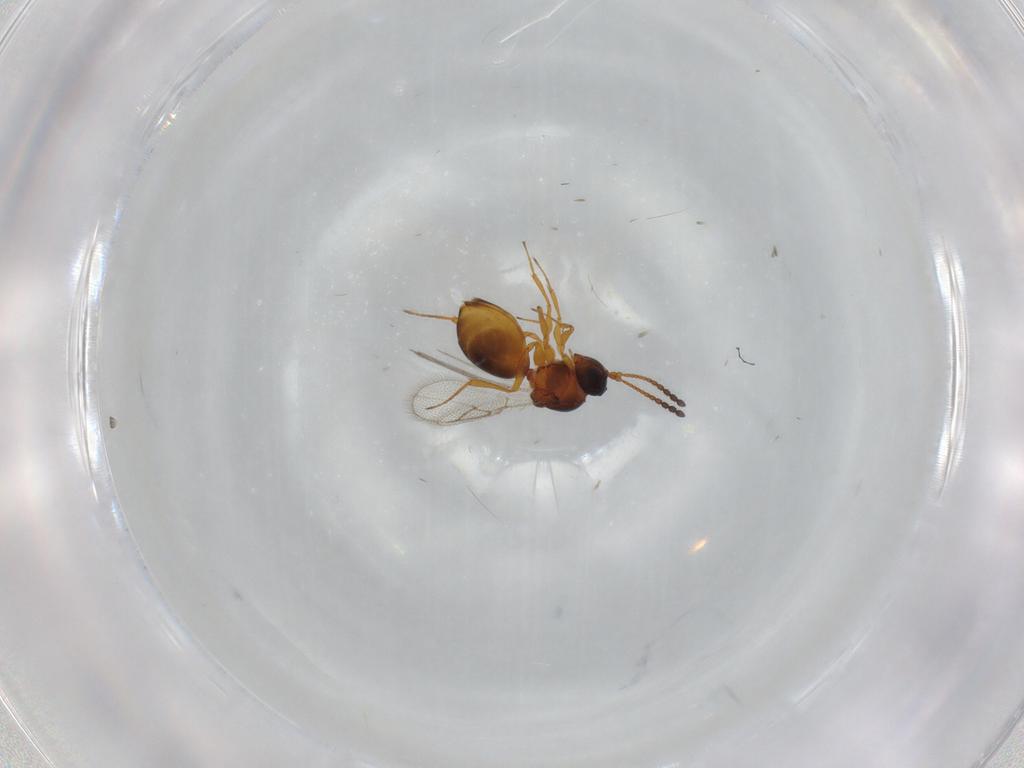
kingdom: Animalia
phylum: Arthropoda
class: Insecta
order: Hymenoptera
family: Figitidae
